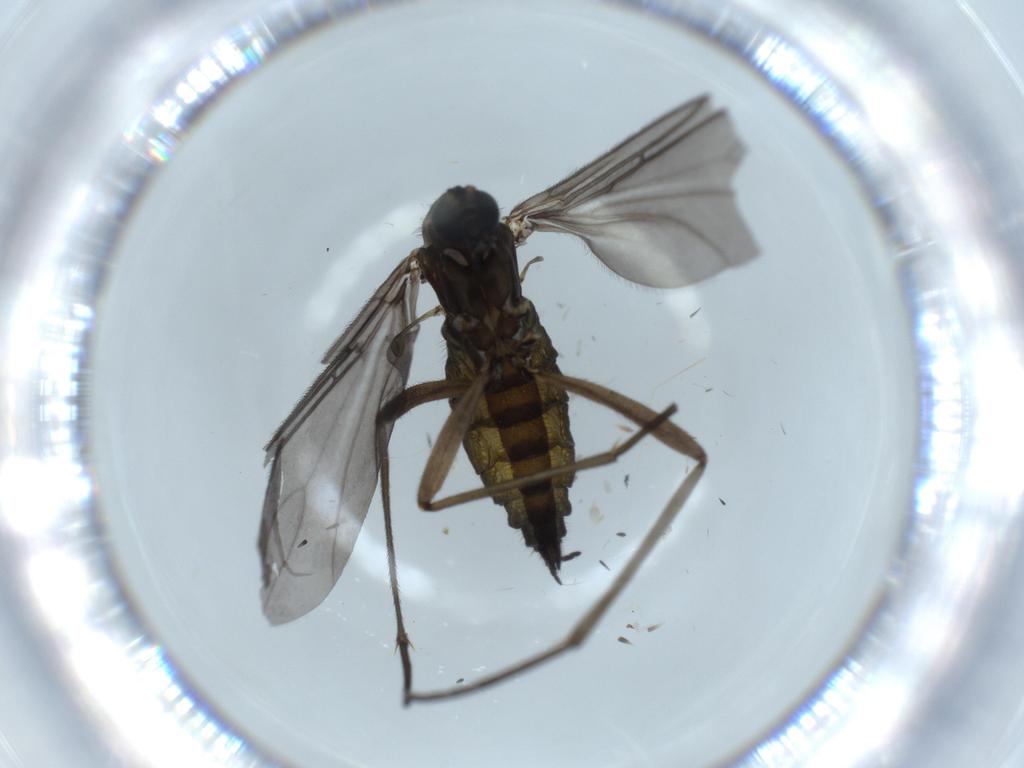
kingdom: Animalia
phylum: Arthropoda
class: Insecta
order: Diptera
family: Sciaridae
